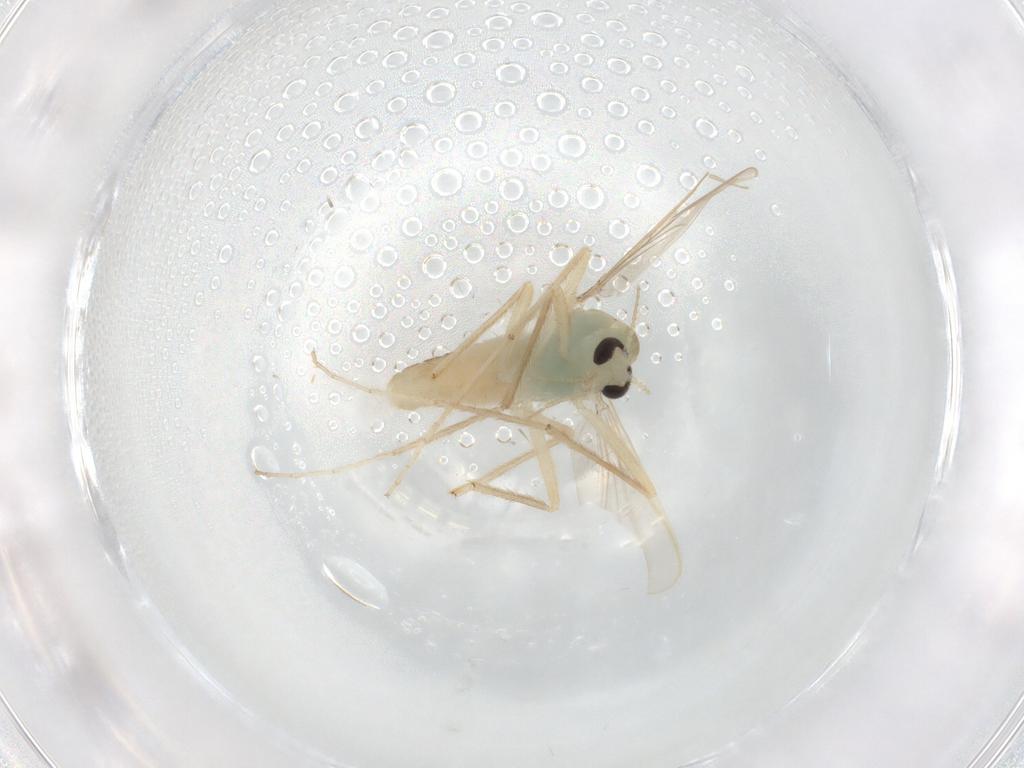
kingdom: Animalia
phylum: Arthropoda
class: Insecta
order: Diptera
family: Chironomidae
